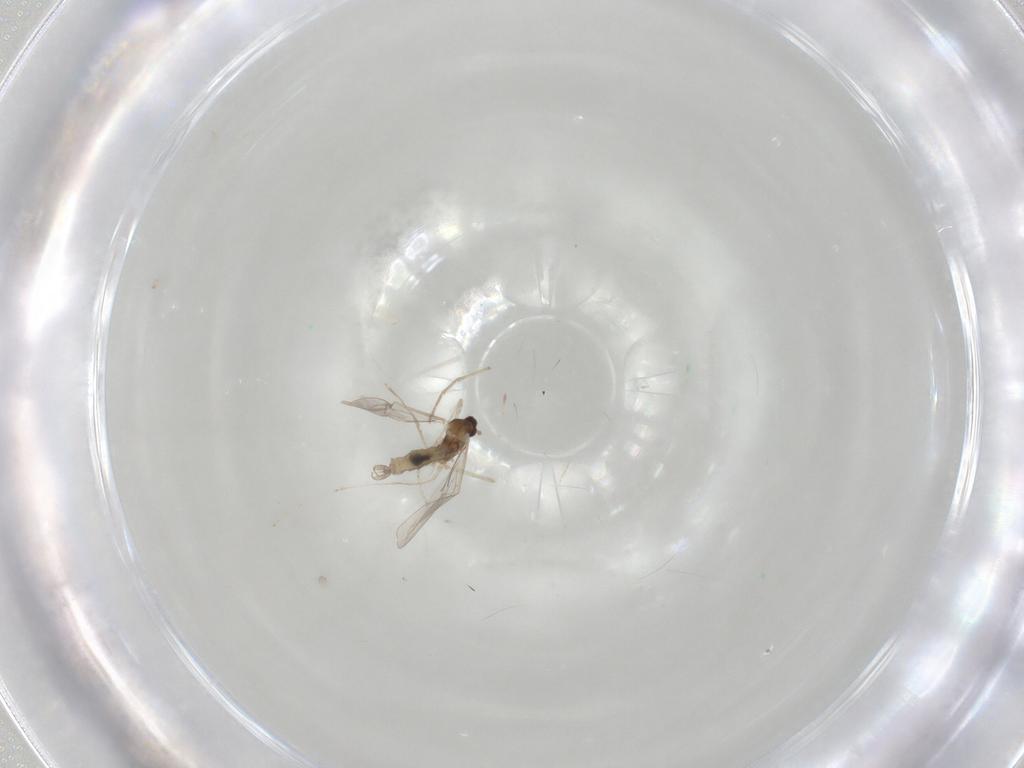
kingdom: Animalia
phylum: Arthropoda
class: Insecta
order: Diptera
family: Cecidomyiidae
